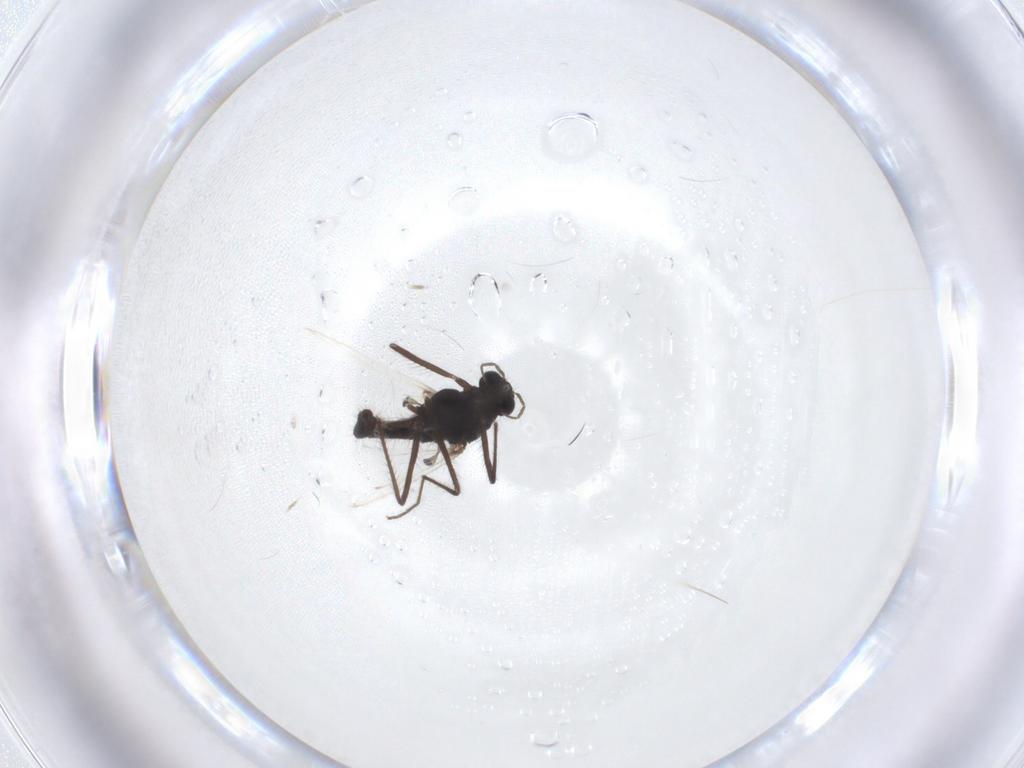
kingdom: Animalia
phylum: Arthropoda
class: Insecta
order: Diptera
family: Chironomidae
